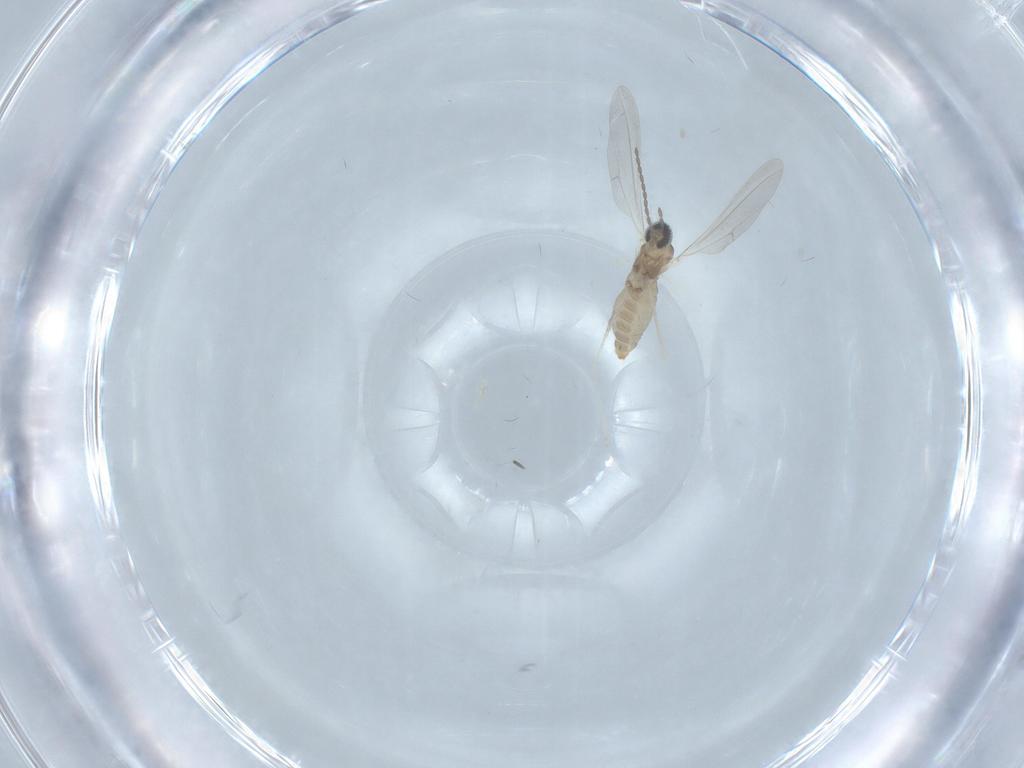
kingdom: Animalia
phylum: Arthropoda
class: Insecta
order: Diptera
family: Cecidomyiidae
